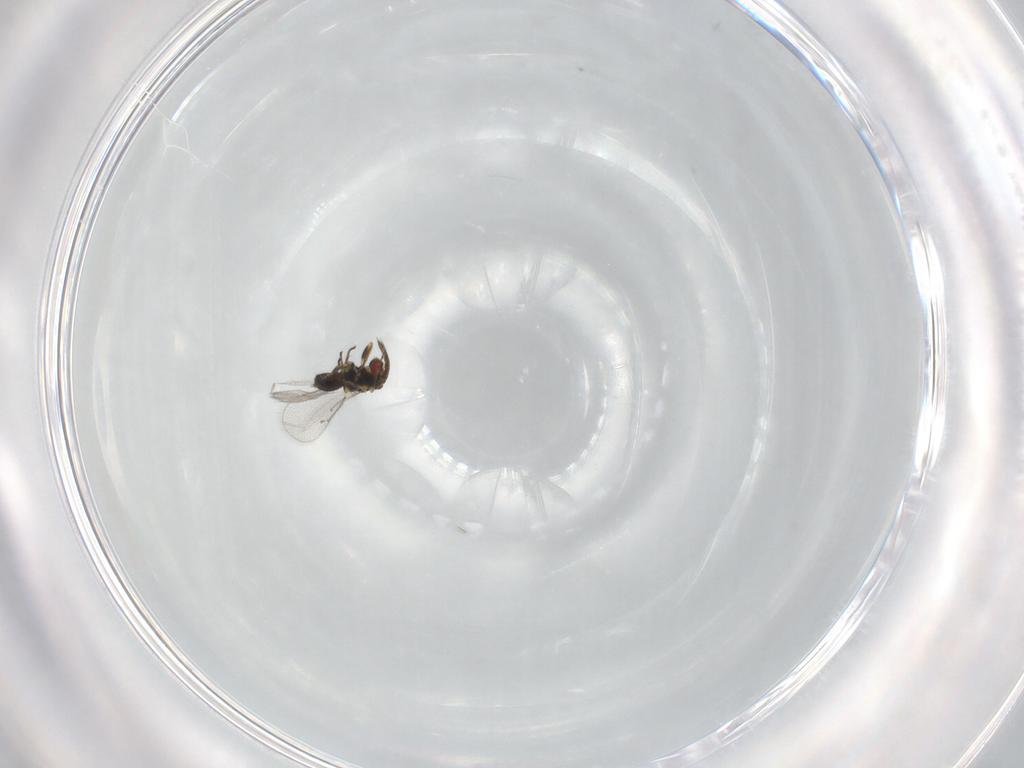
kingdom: Animalia
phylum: Arthropoda
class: Insecta
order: Hymenoptera
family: Eulophidae
